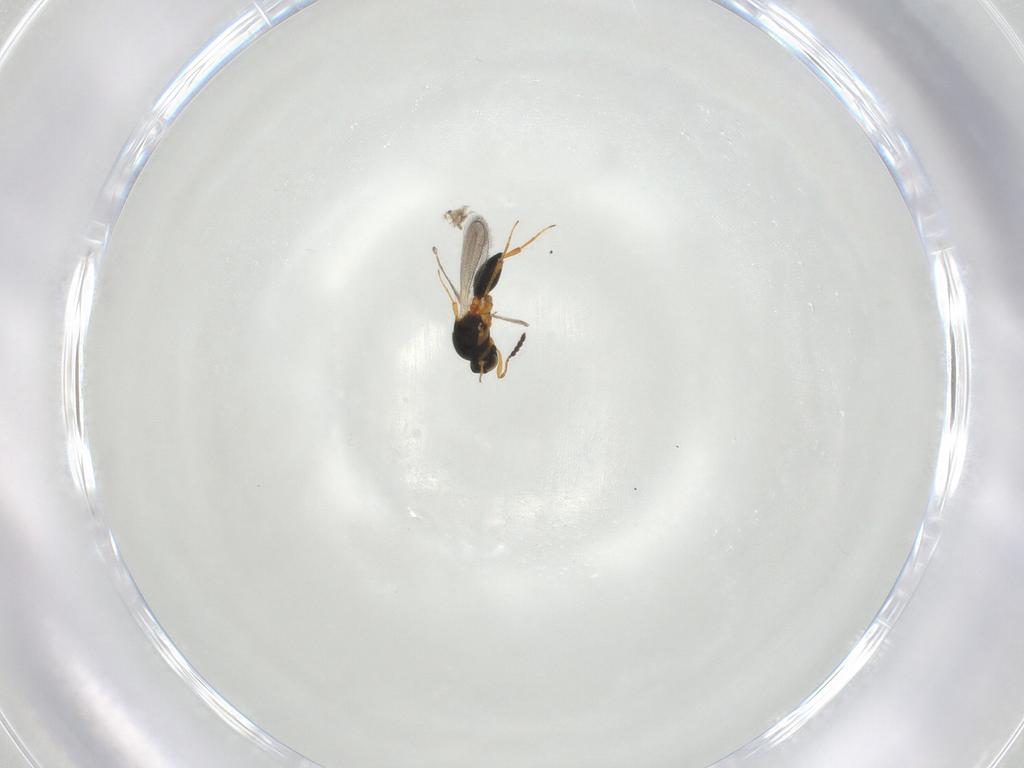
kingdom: Animalia
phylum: Arthropoda
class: Insecta
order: Hymenoptera
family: Platygastridae
